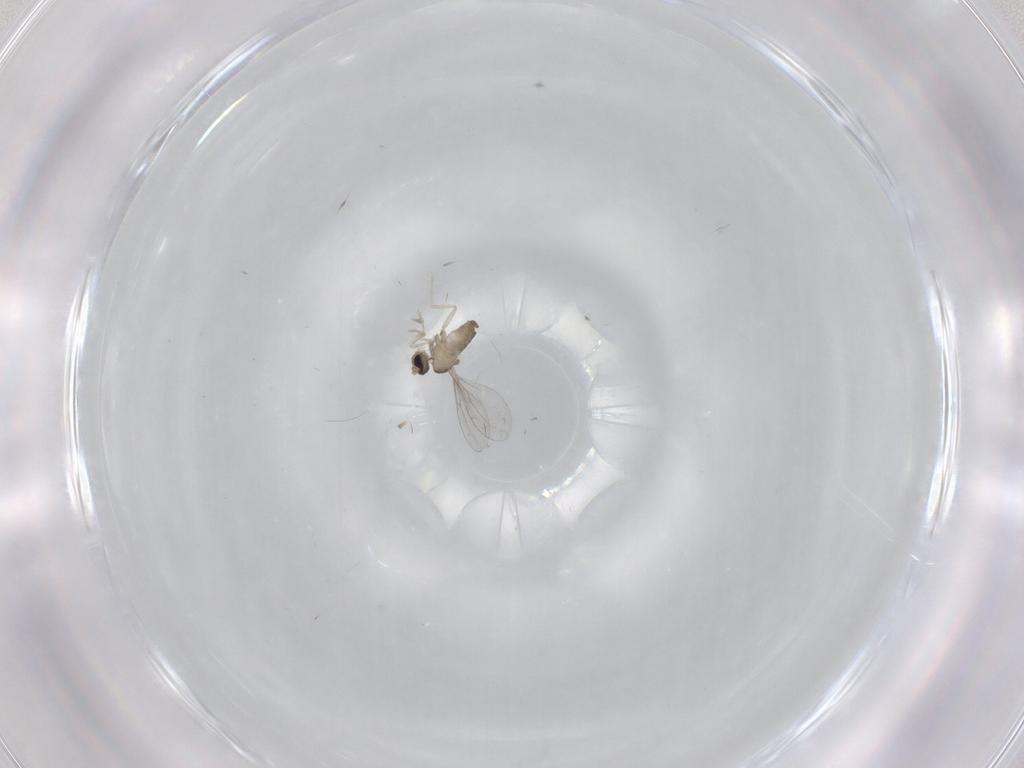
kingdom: Animalia
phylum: Arthropoda
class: Insecta
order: Diptera
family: Cecidomyiidae
